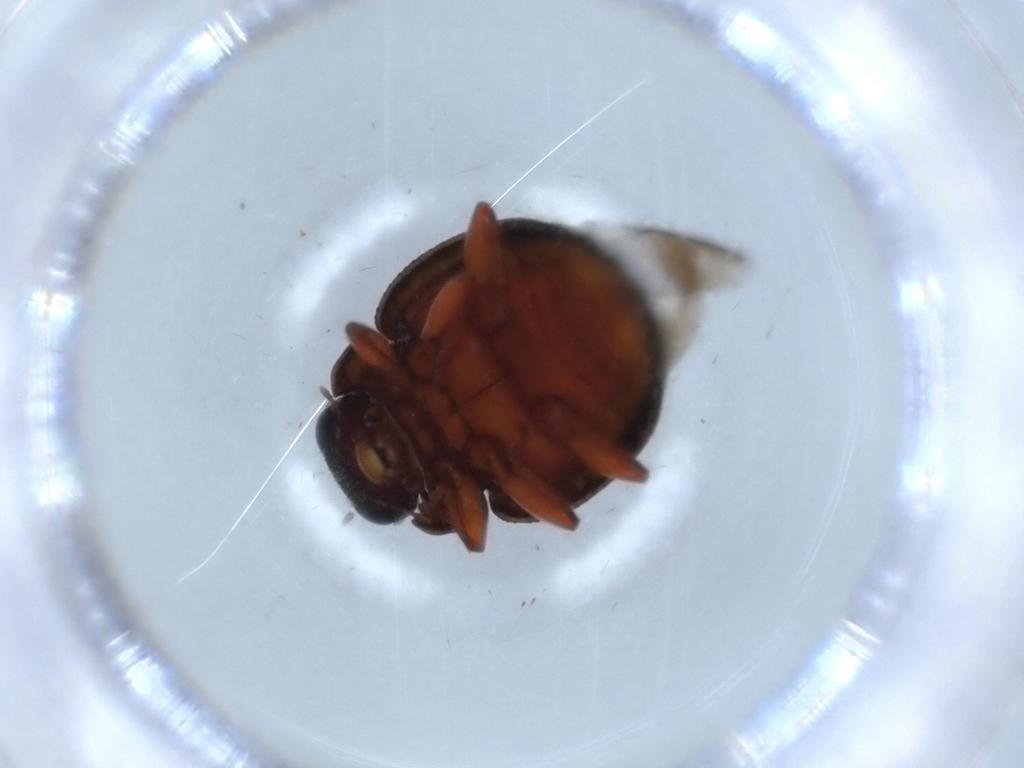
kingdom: Animalia
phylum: Arthropoda
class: Insecta
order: Coleoptera
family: Coccinellidae
